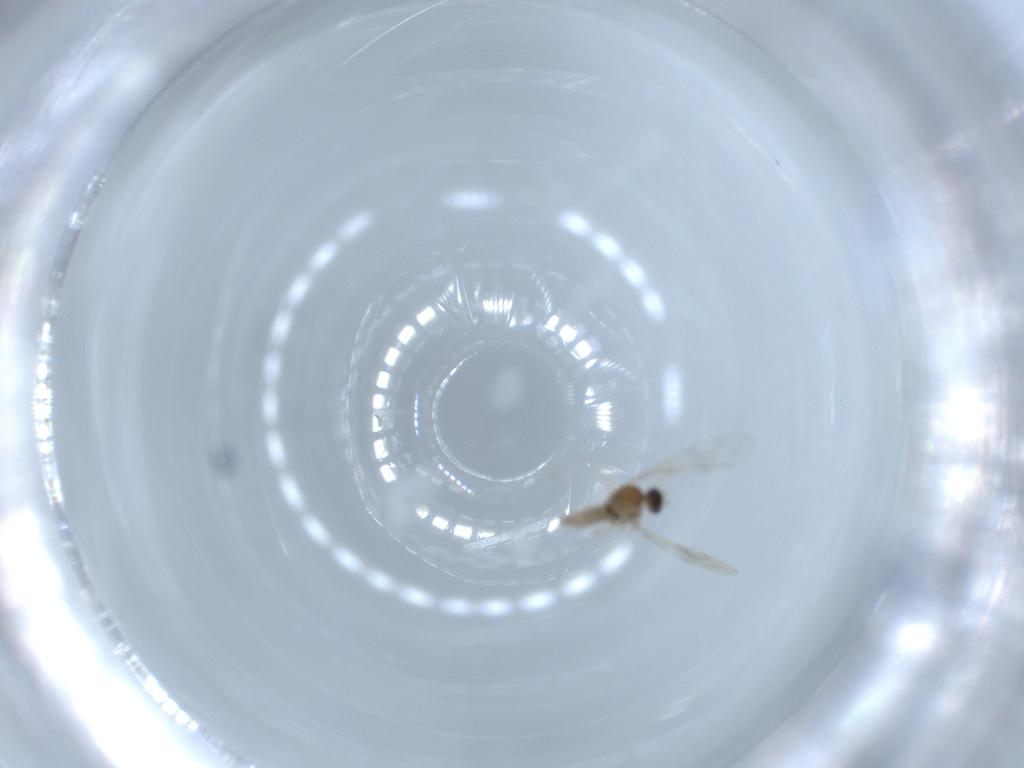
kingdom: Animalia
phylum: Arthropoda
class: Insecta
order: Diptera
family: Cecidomyiidae
